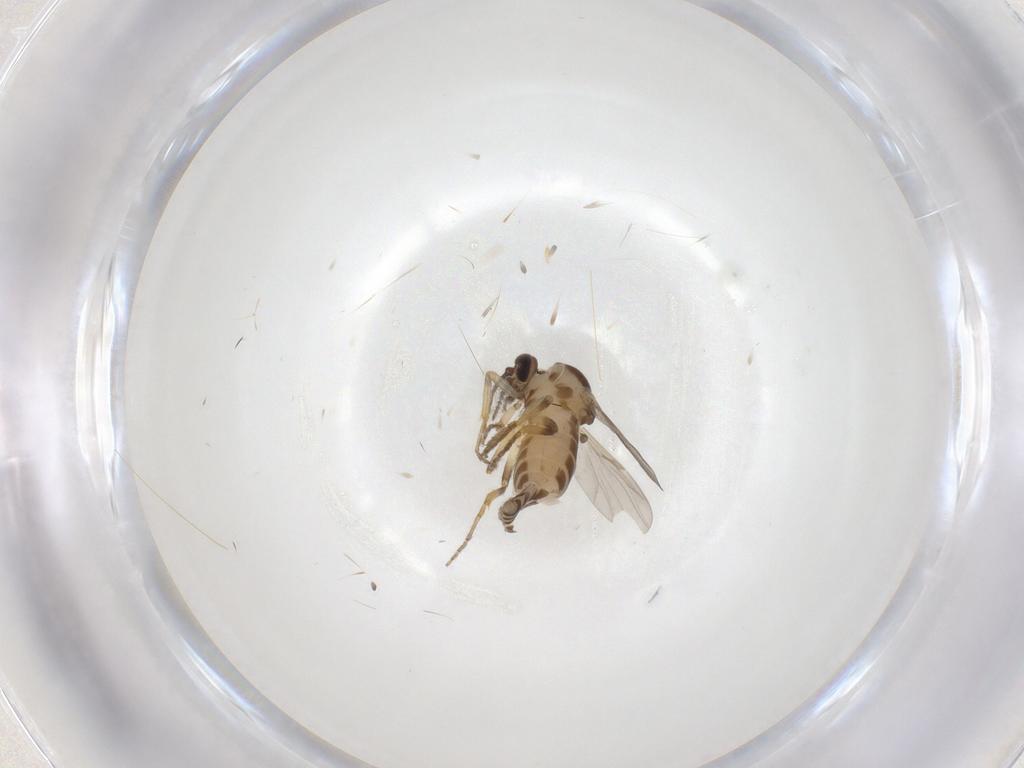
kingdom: Animalia
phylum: Arthropoda
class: Insecta
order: Diptera
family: Ceratopogonidae
